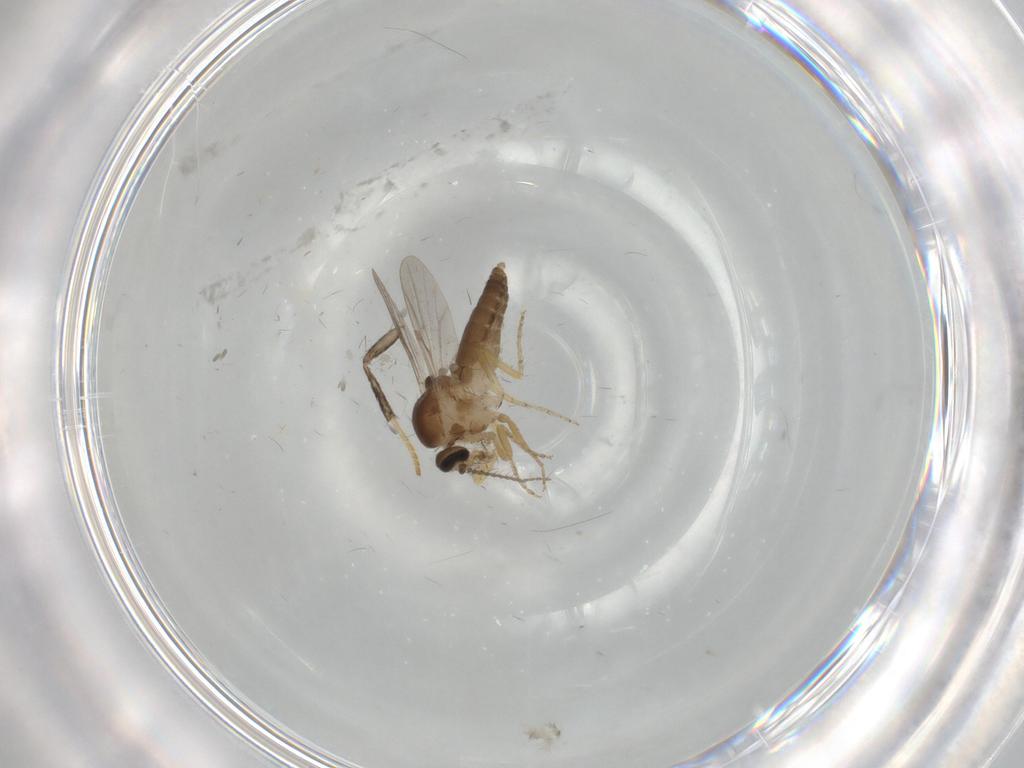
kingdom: Animalia
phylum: Arthropoda
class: Insecta
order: Diptera
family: Ceratopogonidae
